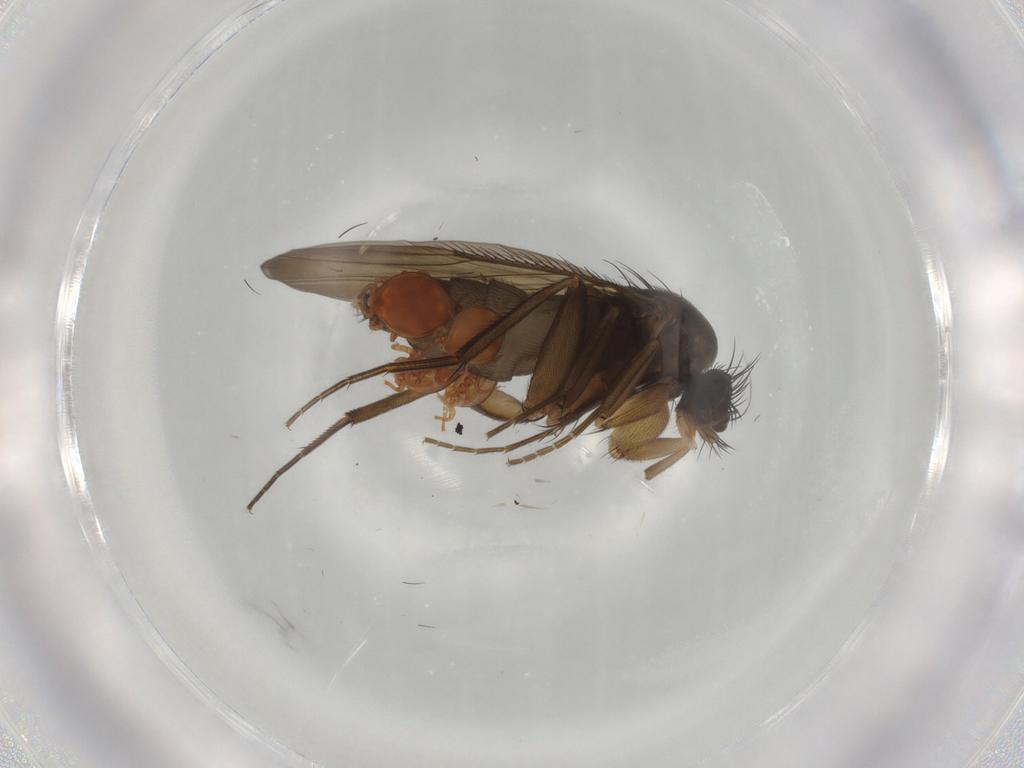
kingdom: Animalia
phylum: Arthropoda
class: Insecta
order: Diptera
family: Phoridae
